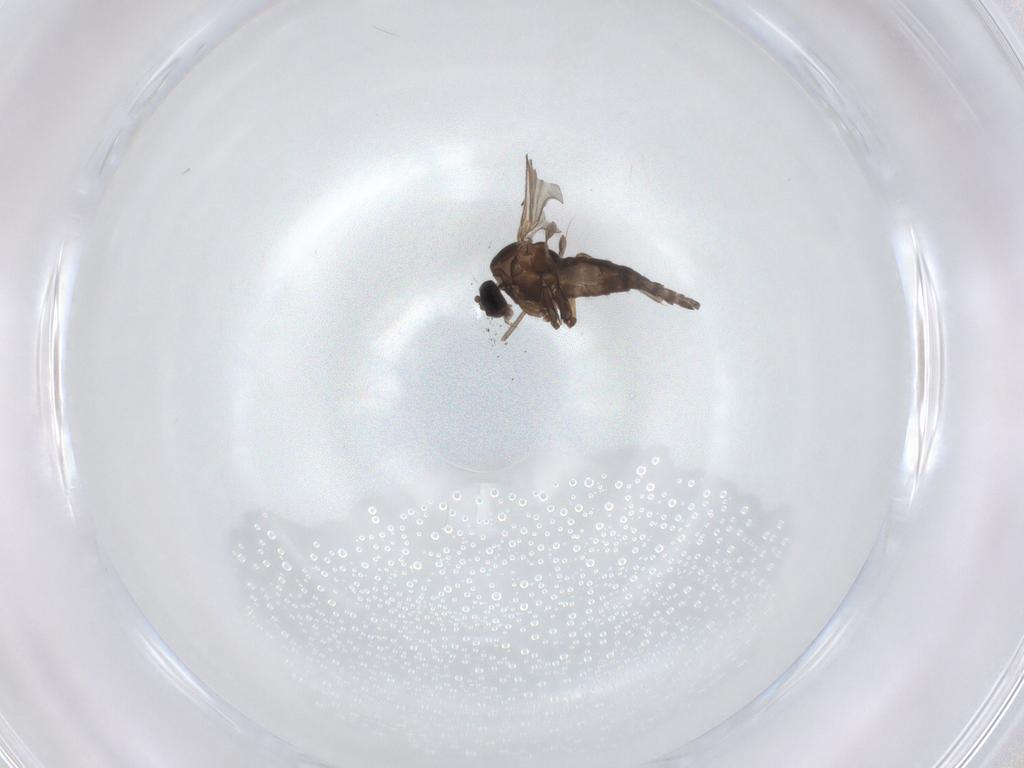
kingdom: Animalia
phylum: Arthropoda
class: Insecta
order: Diptera
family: Sciaridae
